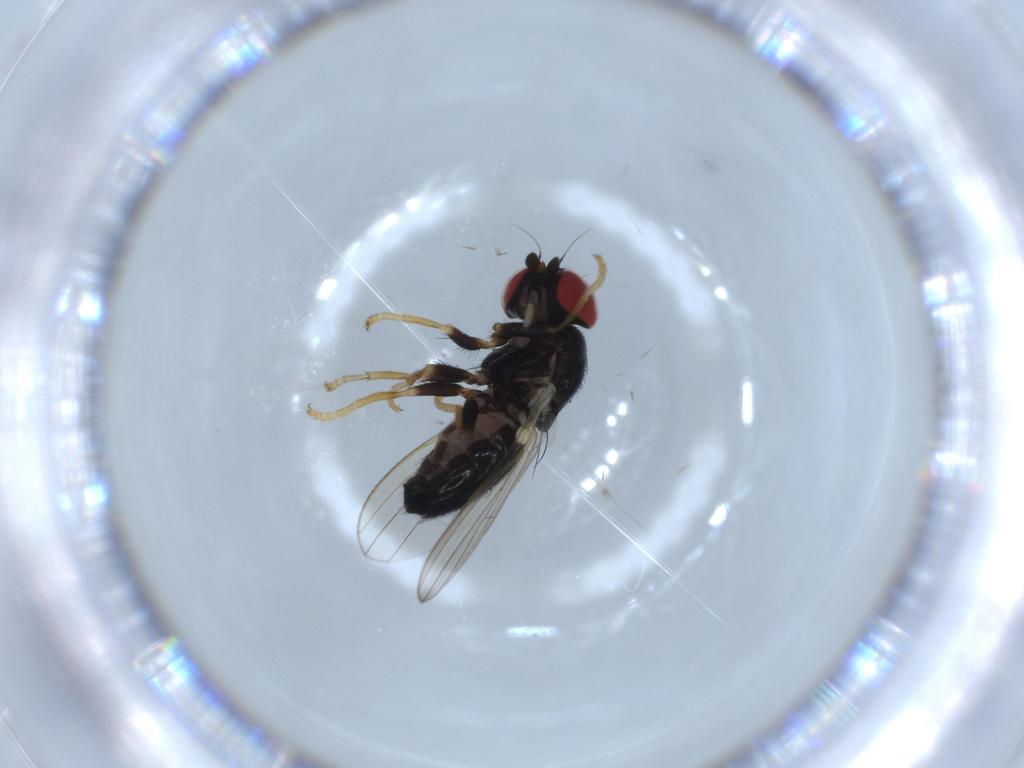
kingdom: Animalia
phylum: Arthropoda
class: Insecta
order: Diptera
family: Chamaemyiidae
